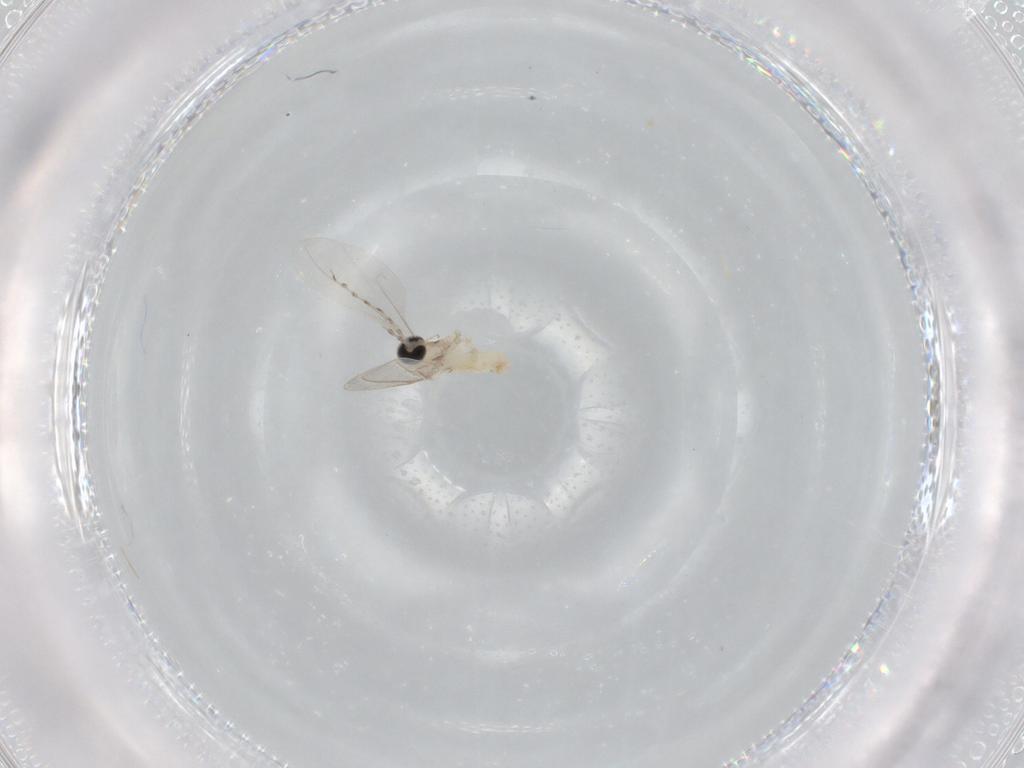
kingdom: Animalia
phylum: Arthropoda
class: Insecta
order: Diptera
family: Cecidomyiidae
